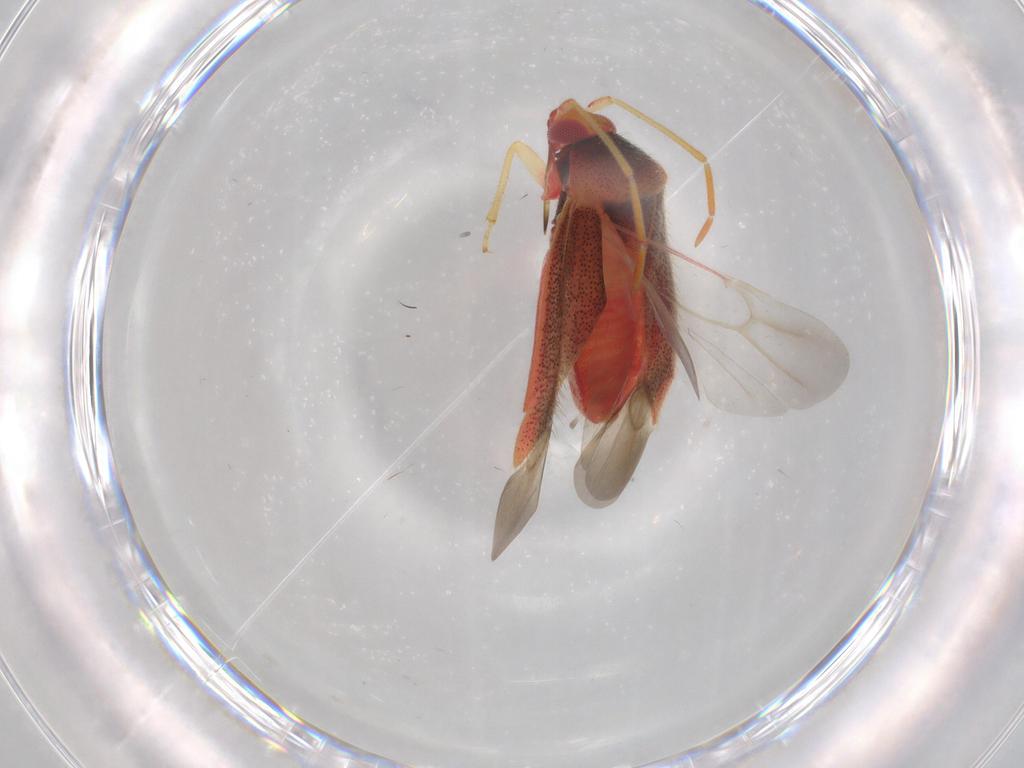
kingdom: Animalia
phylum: Arthropoda
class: Insecta
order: Hemiptera
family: Miridae
